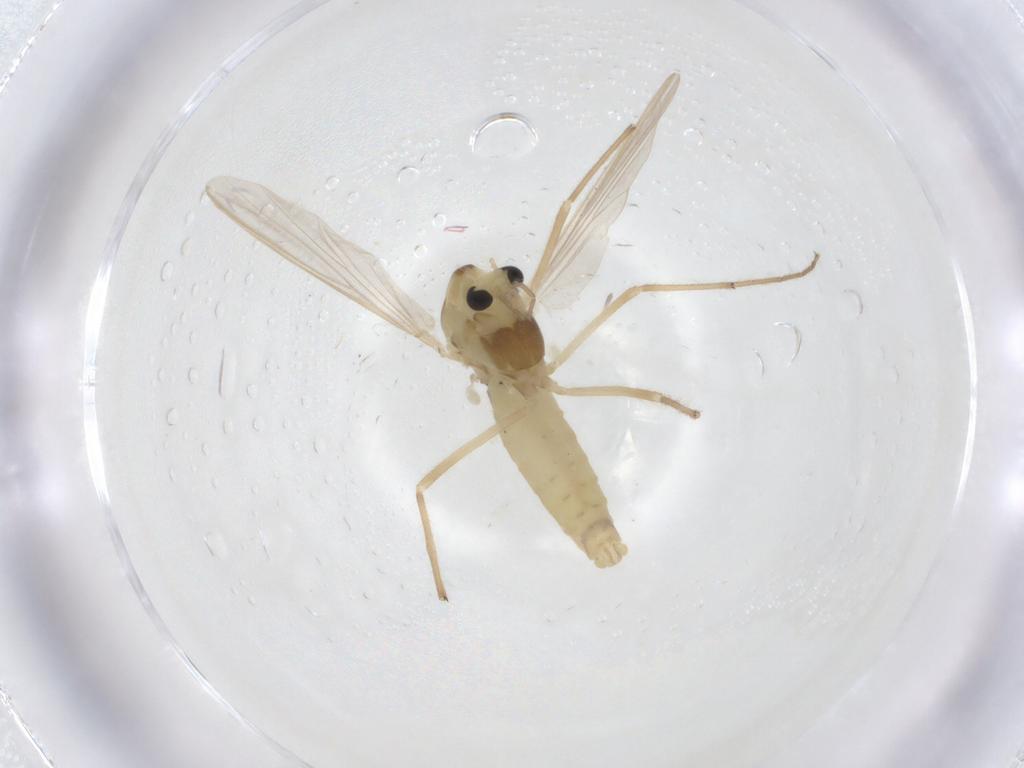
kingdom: Animalia
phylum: Arthropoda
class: Insecta
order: Diptera
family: Chironomidae
